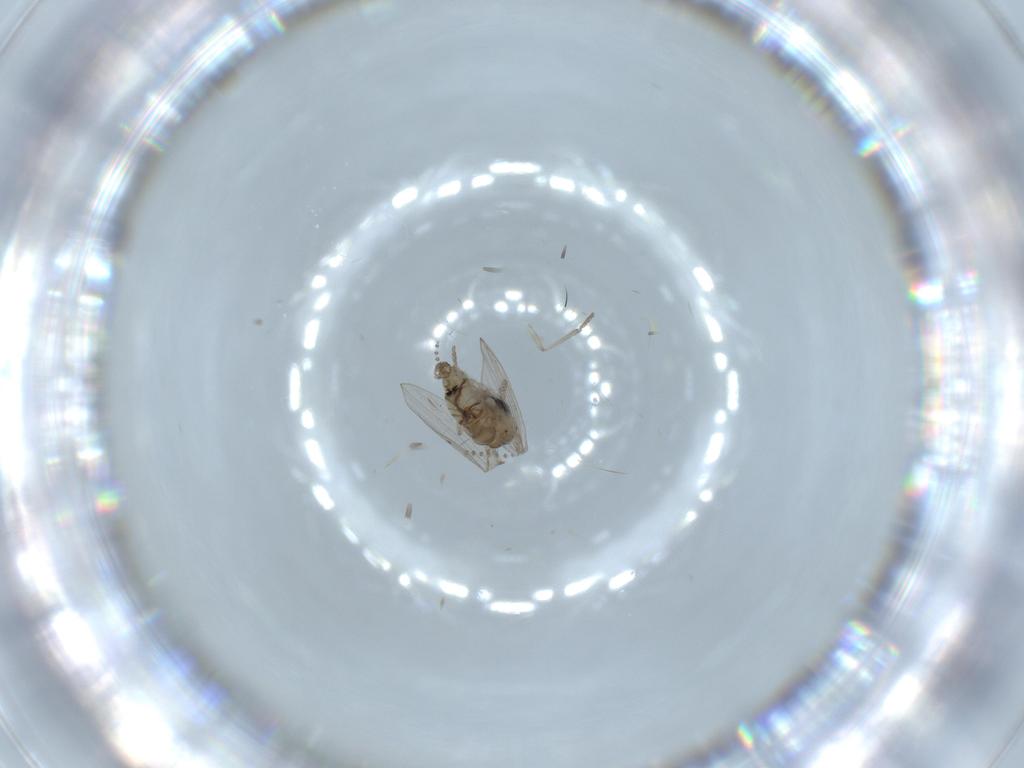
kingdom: Animalia
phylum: Arthropoda
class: Insecta
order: Diptera
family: Psychodidae
